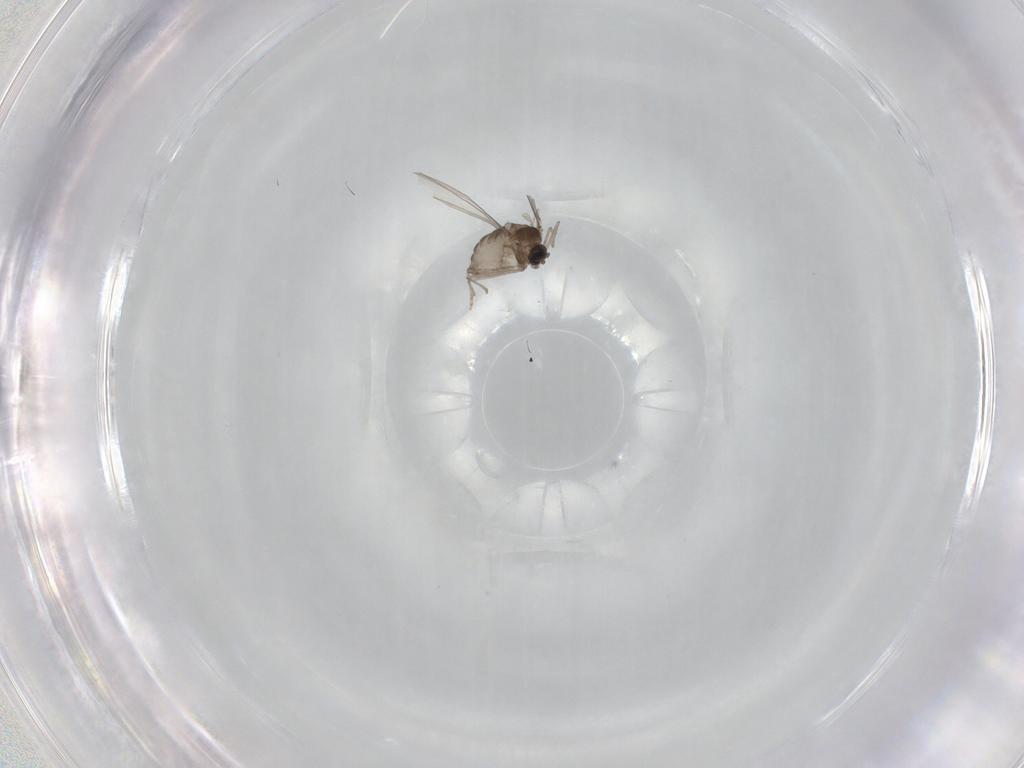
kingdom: Animalia
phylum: Arthropoda
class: Insecta
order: Diptera
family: Cecidomyiidae
